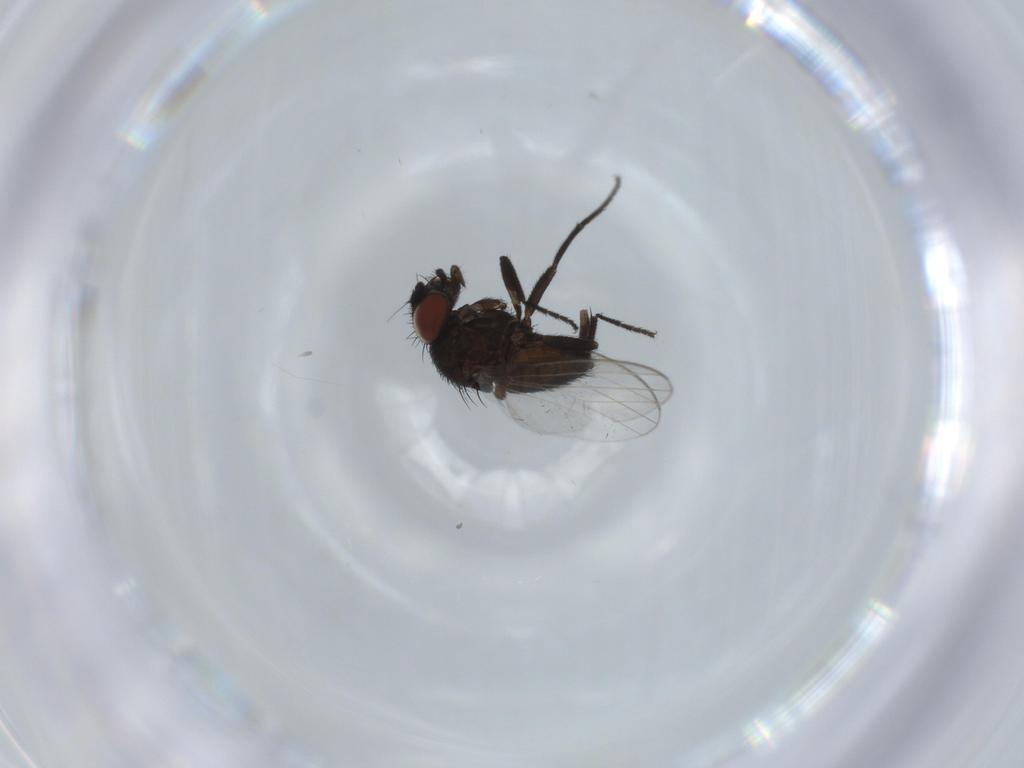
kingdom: Animalia
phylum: Arthropoda
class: Insecta
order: Diptera
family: Milichiidae
